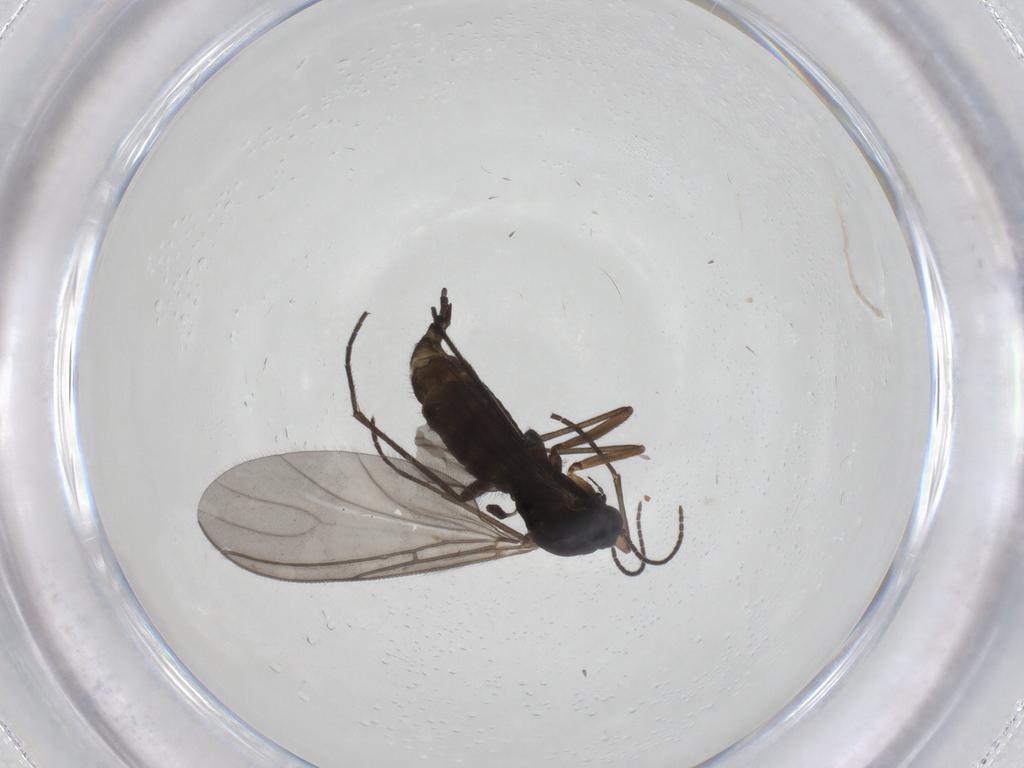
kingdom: Animalia
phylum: Arthropoda
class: Insecta
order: Diptera
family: Sciaridae
